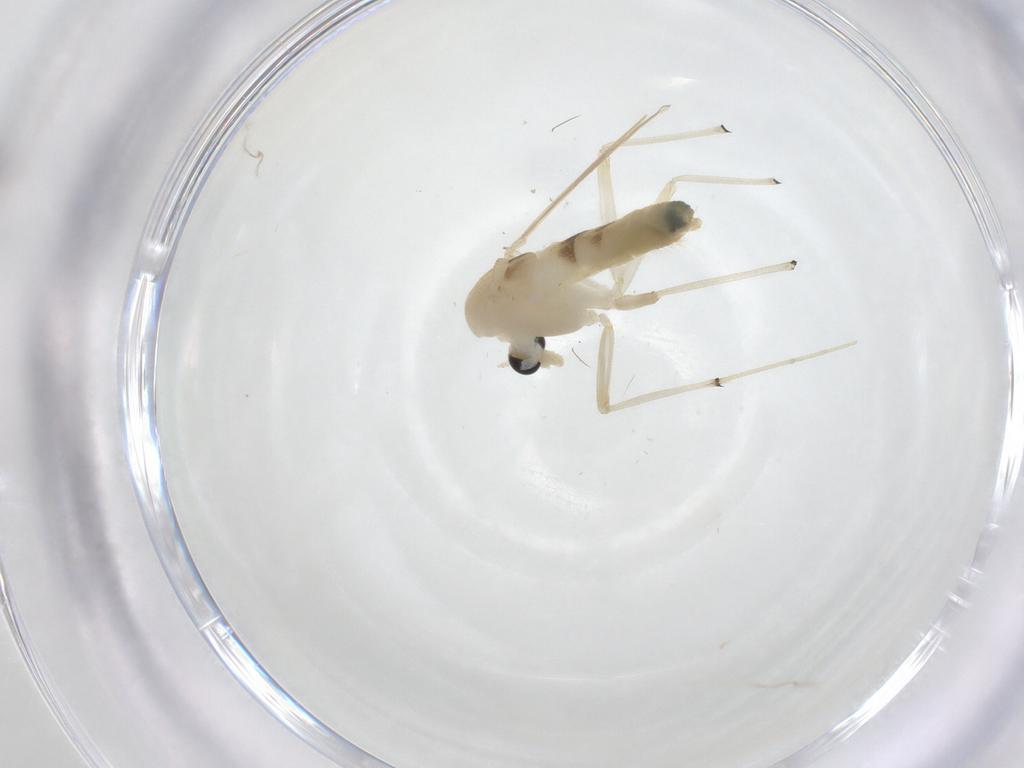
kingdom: Animalia
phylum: Arthropoda
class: Insecta
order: Diptera
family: Chironomidae
